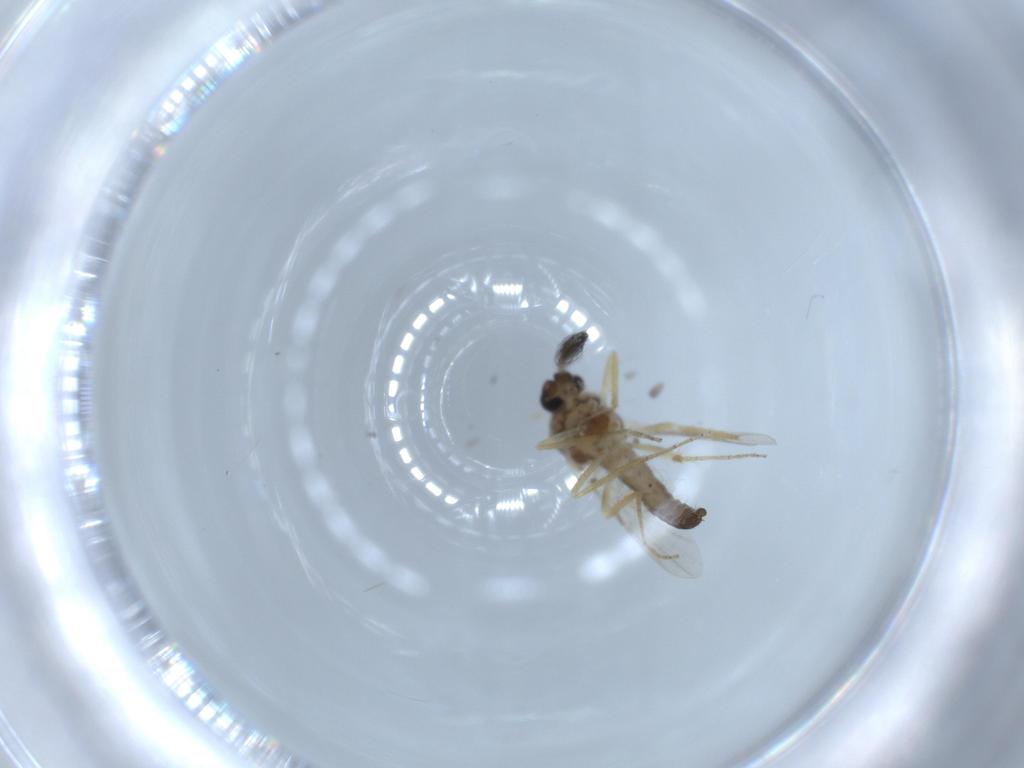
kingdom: Animalia
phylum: Arthropoda
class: Insecta
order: Diptera
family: Ceratopogonidae
